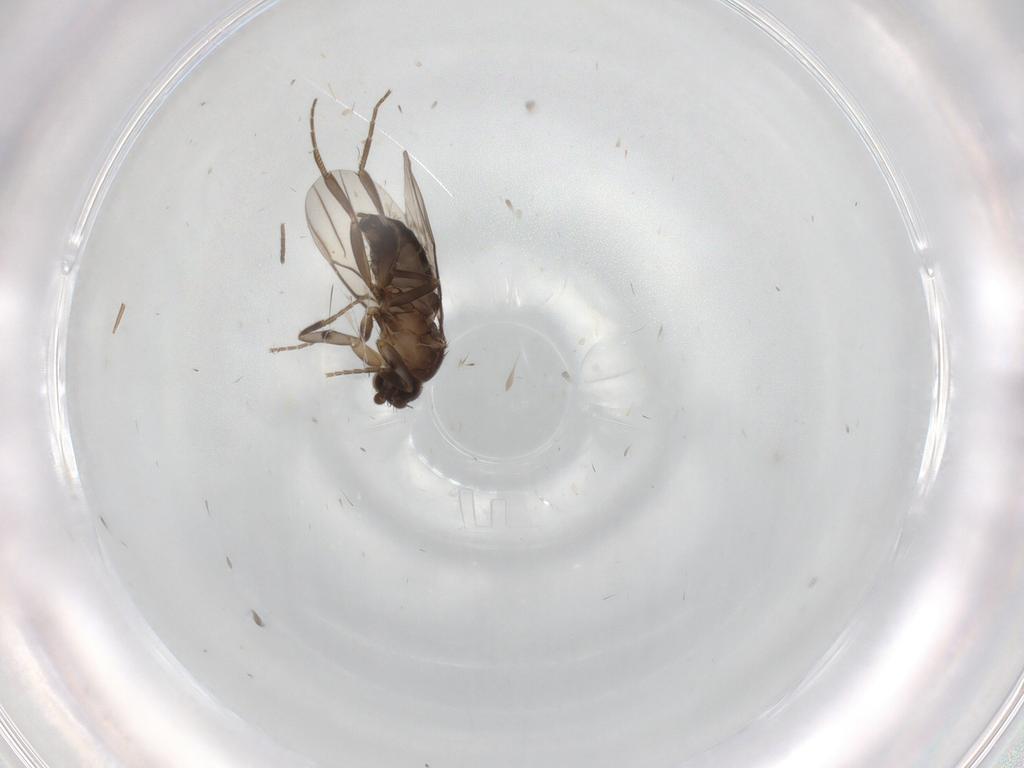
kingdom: Animalia
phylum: Arthropoda
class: Insecta
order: Diptera
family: Phoridae
